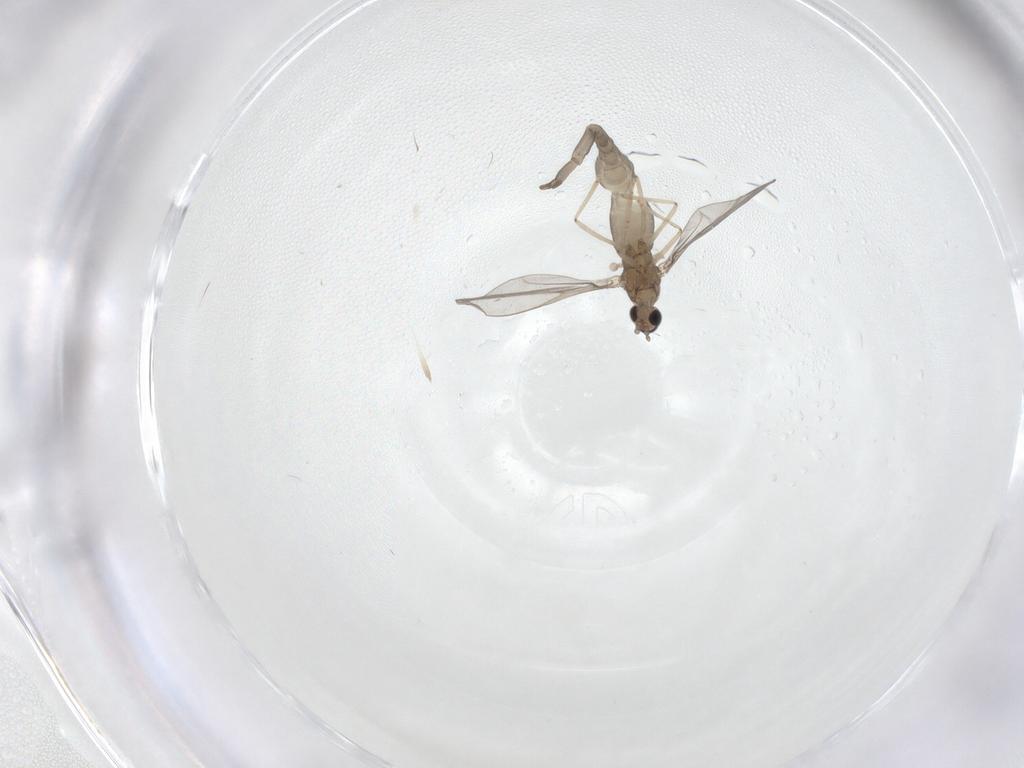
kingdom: Animalia
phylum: Arthropoda
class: Insecta
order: Diptera
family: Cecidomyiidae
